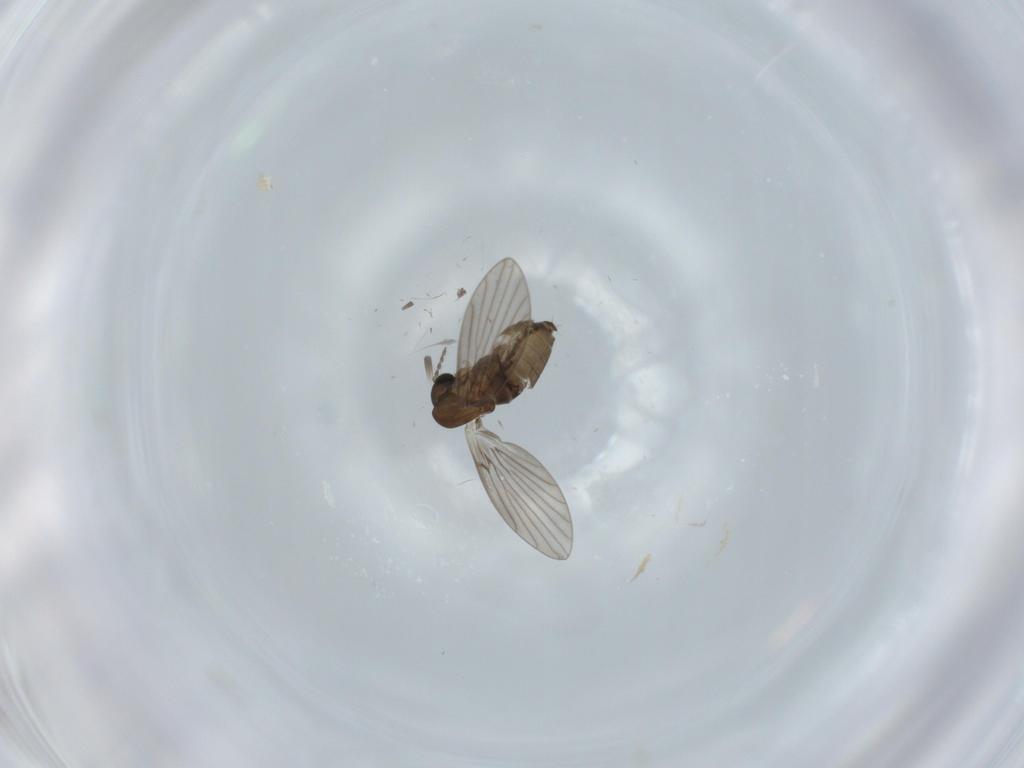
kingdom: Animalia
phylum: Arthropoda
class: Insecta
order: Diptera
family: Psychodidae
